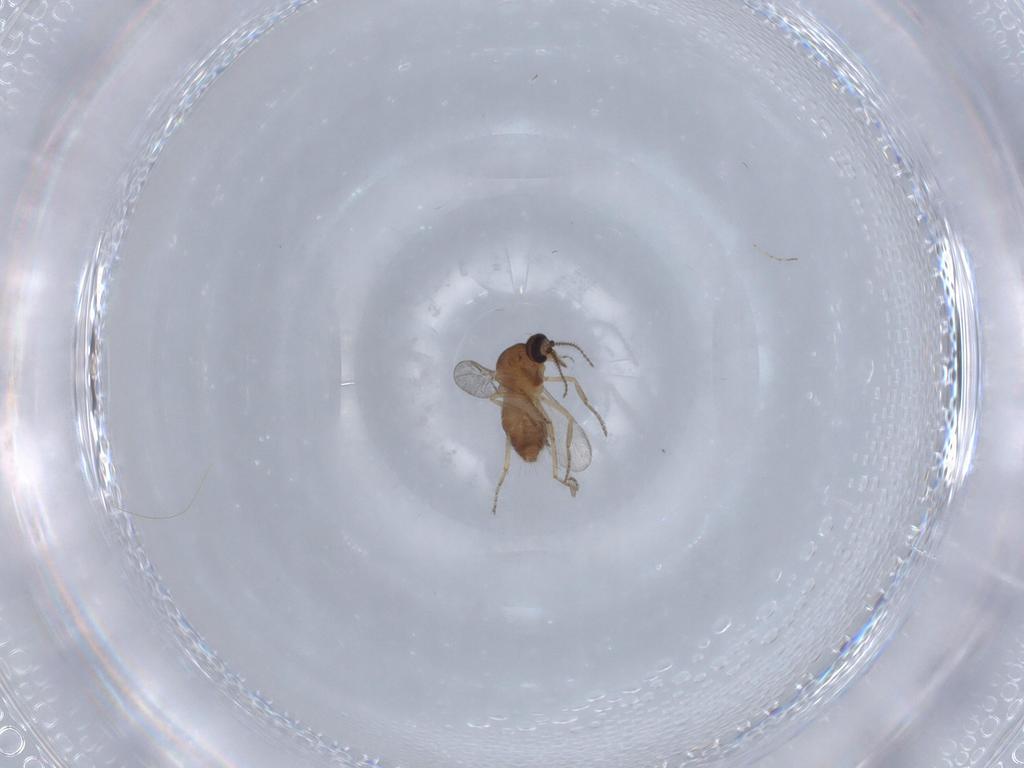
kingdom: Animalia
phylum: Arthropoda
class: Insecta
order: Diptera
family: Ceratopogonidae
